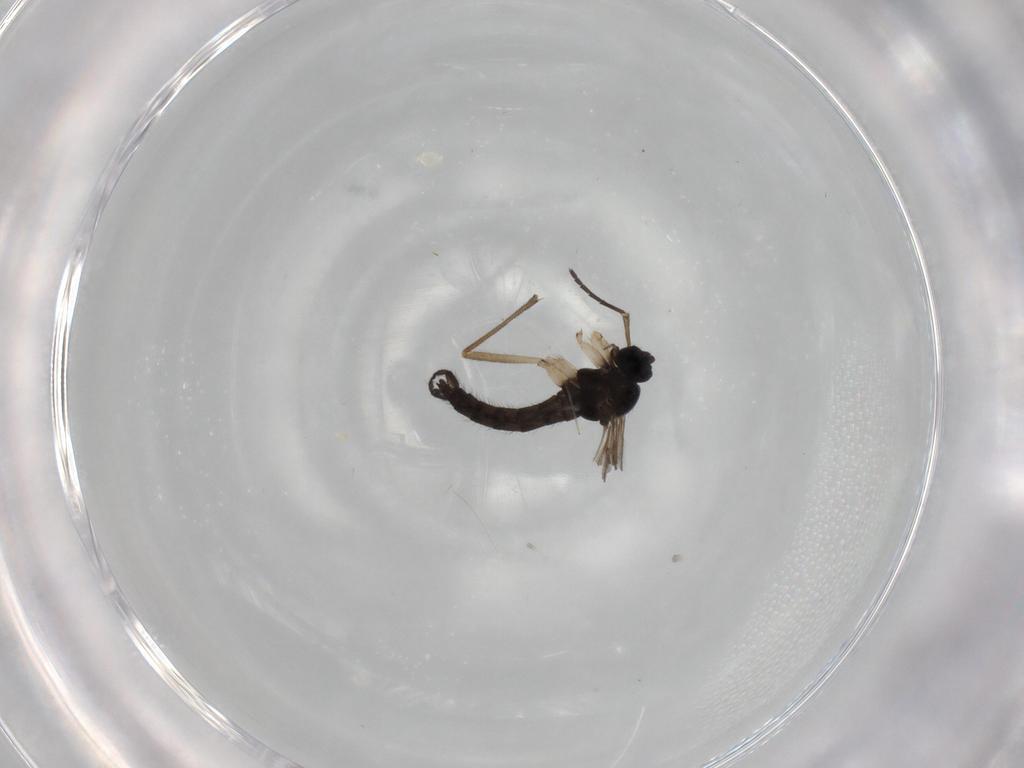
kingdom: Animalia
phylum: Arthropoda
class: Insecta
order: Diptera
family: Sciaridae
